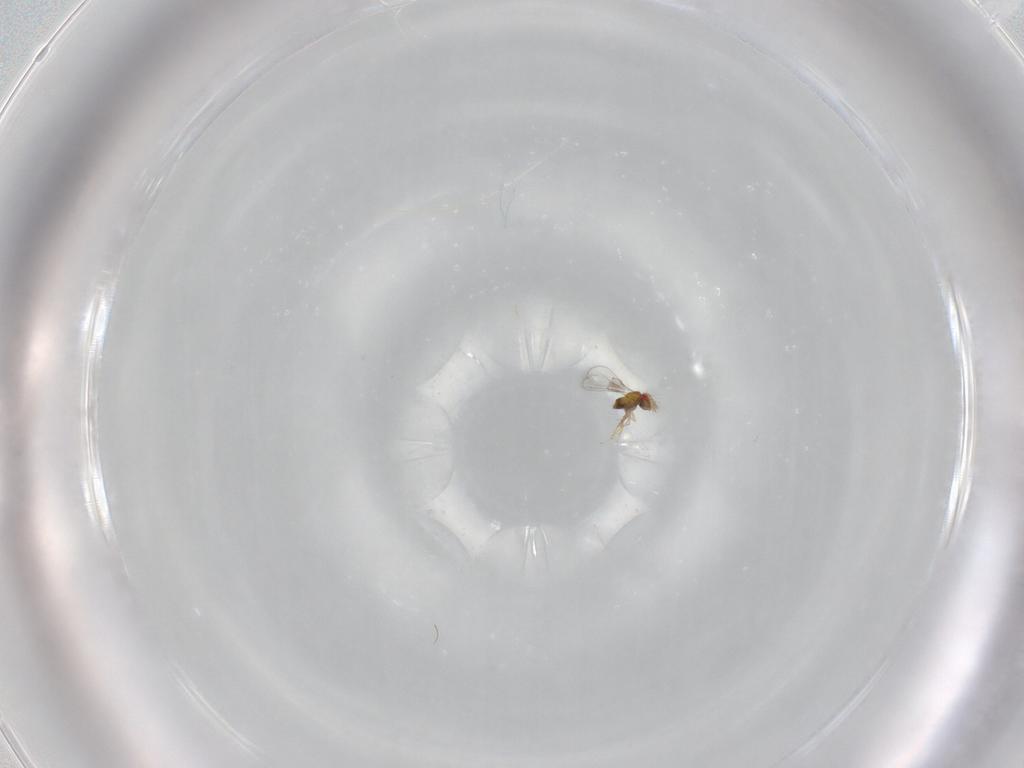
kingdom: Animalia
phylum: Arthropoda
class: Insecta
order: Hymenoptera
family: Trichogrammatidae
